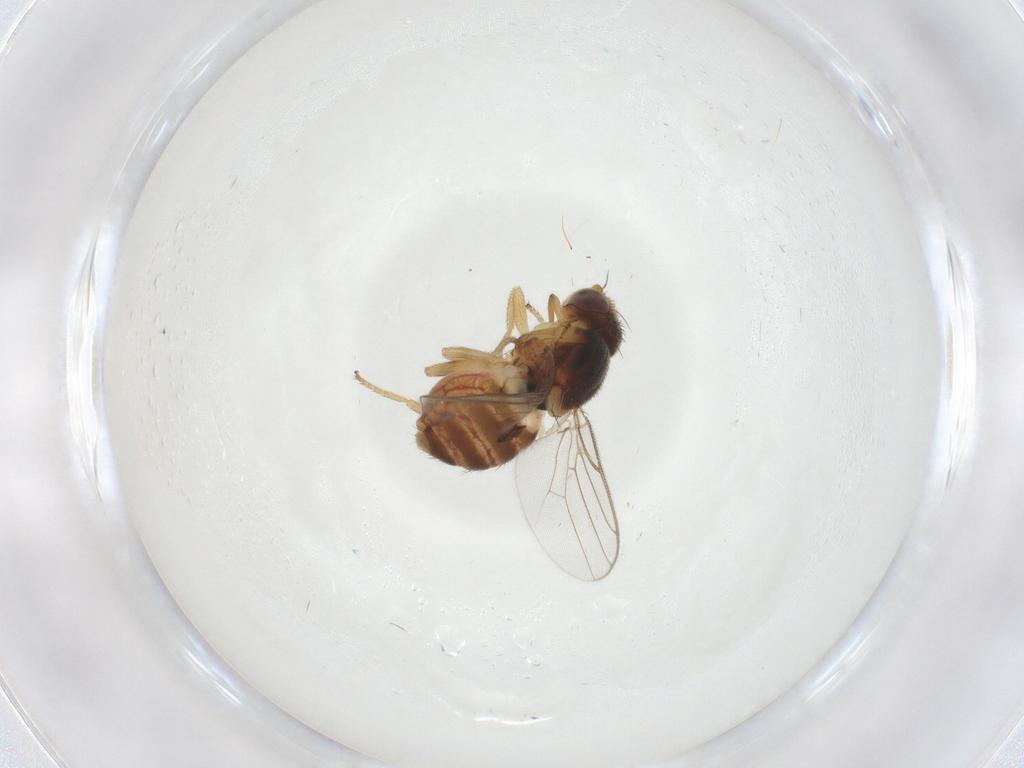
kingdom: Animalia
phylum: Arthropoda
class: Insecta
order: Diptera
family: Chloropidae
